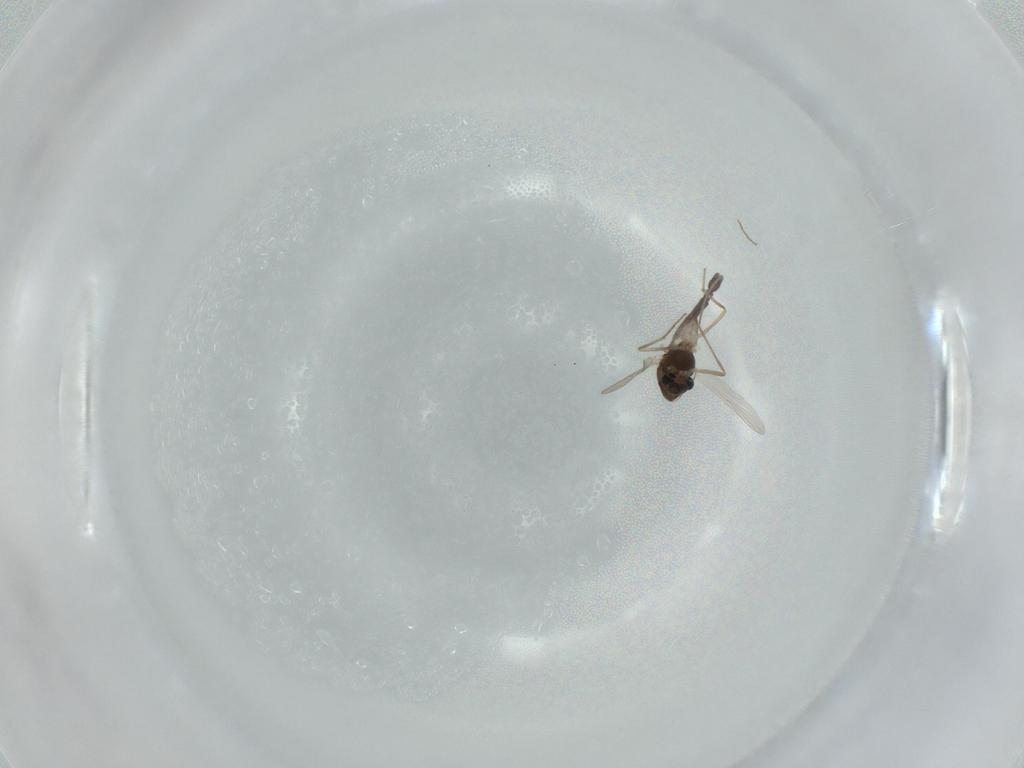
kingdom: Animalia
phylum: Arthropoda
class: Insecta
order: Diptera
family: Chironomidae
